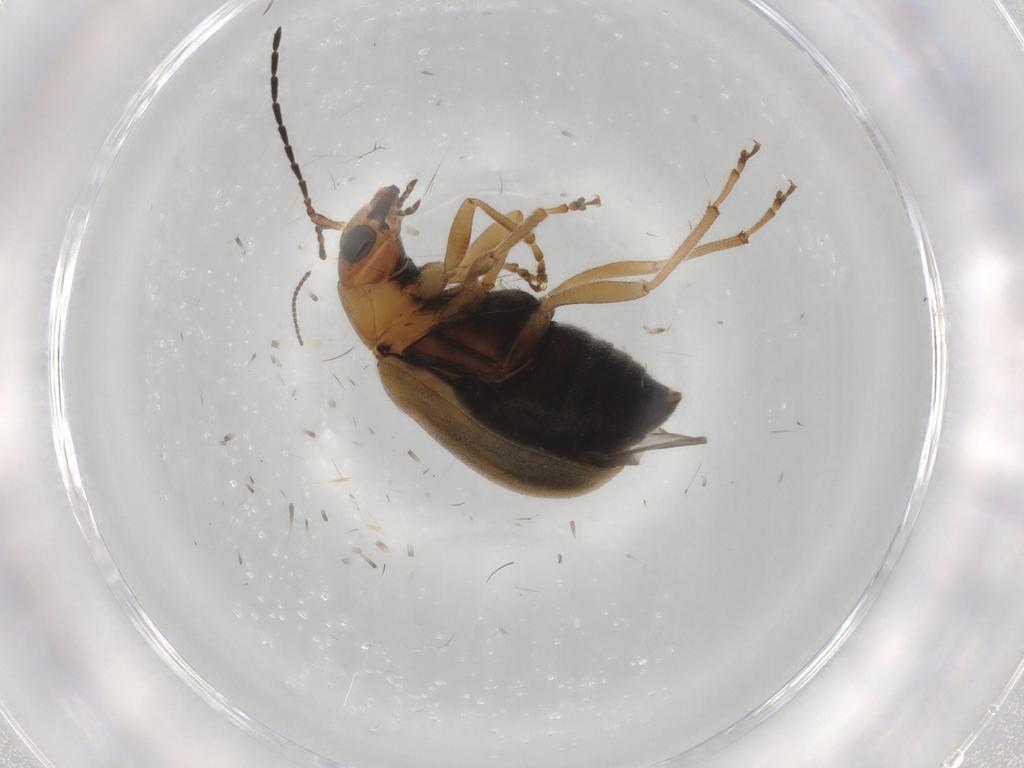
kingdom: Animalia
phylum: Arthropoda
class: Insecta
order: Coleoptera
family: Chrysomelidae
